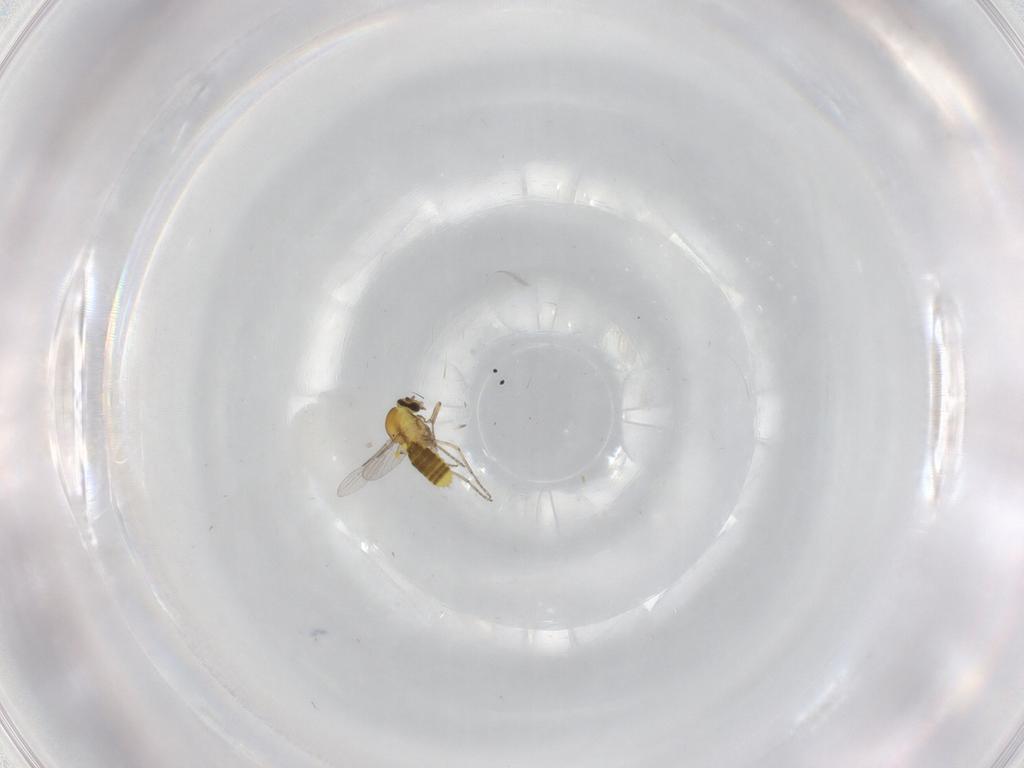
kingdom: Animalia
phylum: Arthropoda
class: Insecta
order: Diptera
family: Ceratopogonidae
